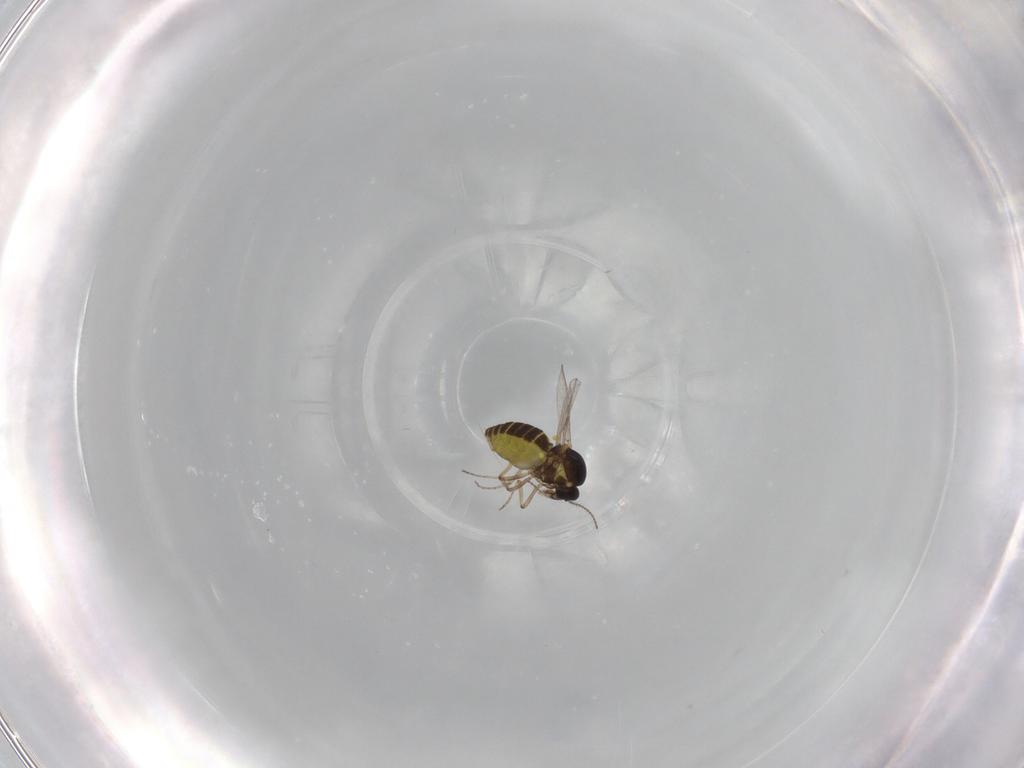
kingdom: Animalia
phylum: Arthropoda
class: Insecta
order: Diptera
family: Ceratopogonidae
